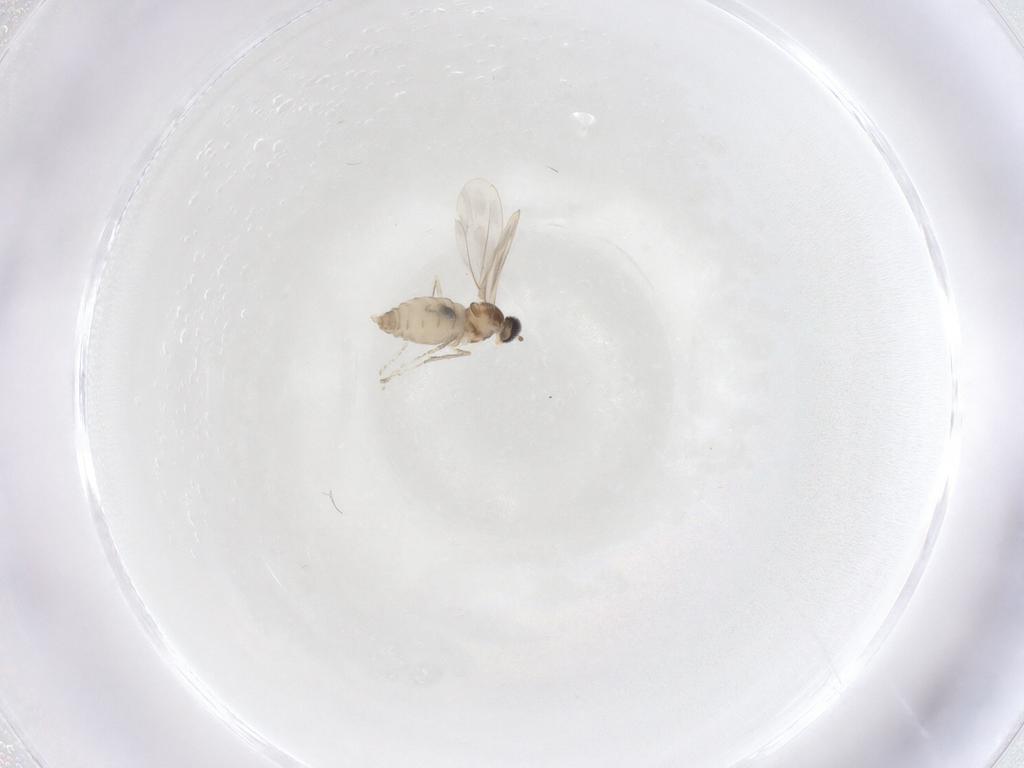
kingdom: Animalia
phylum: Arthropoda
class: Insecta
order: Diptera
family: Cecidomyiidae
